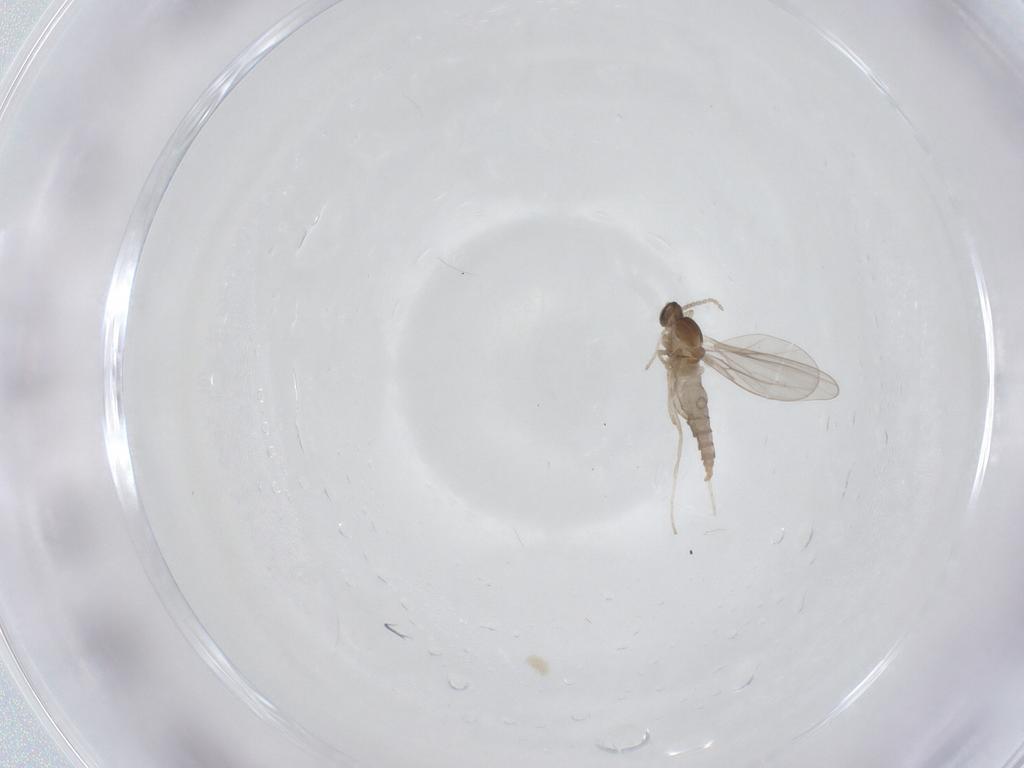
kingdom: Animalia
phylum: Arthropoda
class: Insecta
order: Diptera
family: Cecidomyiidae
